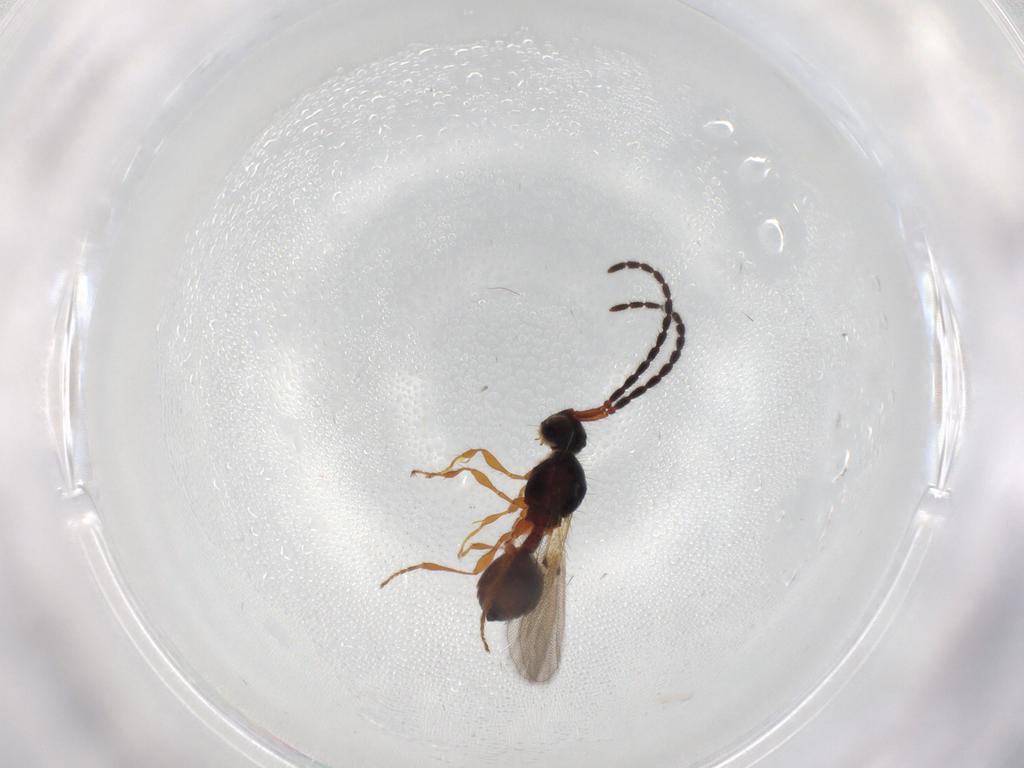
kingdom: Animalia
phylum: Arthropoda
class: Insecta
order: Hymenoptera
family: Diapriidae
